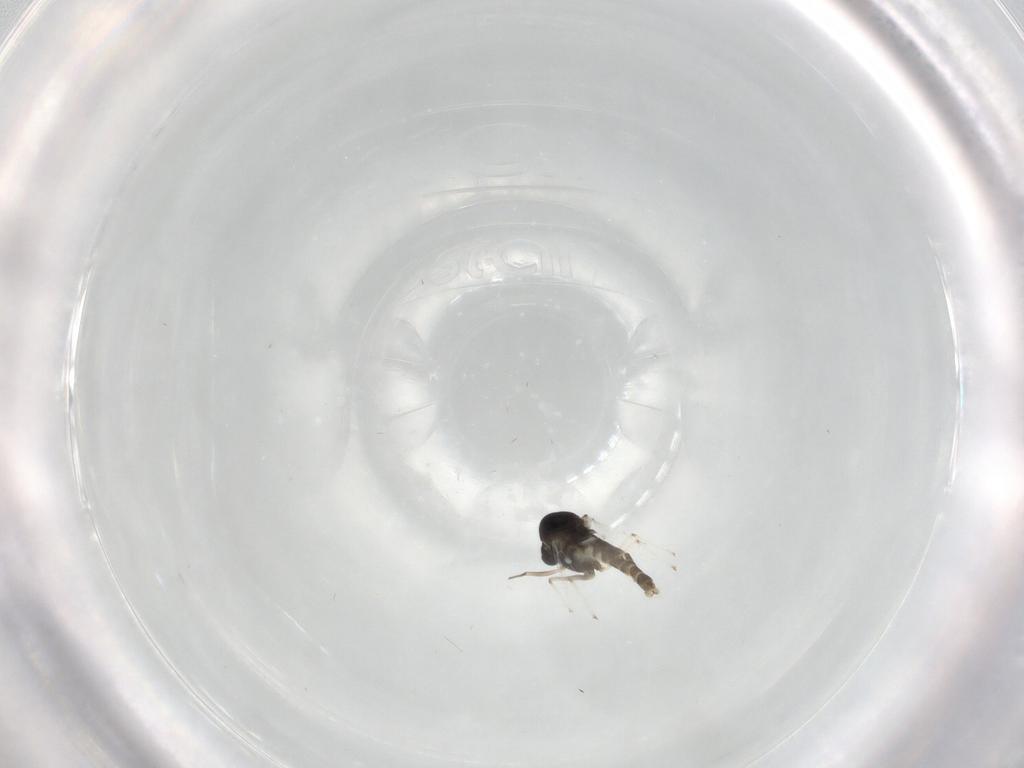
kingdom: Animalia
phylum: Arthropoda
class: Insecta
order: Diptera
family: Chironomidae
